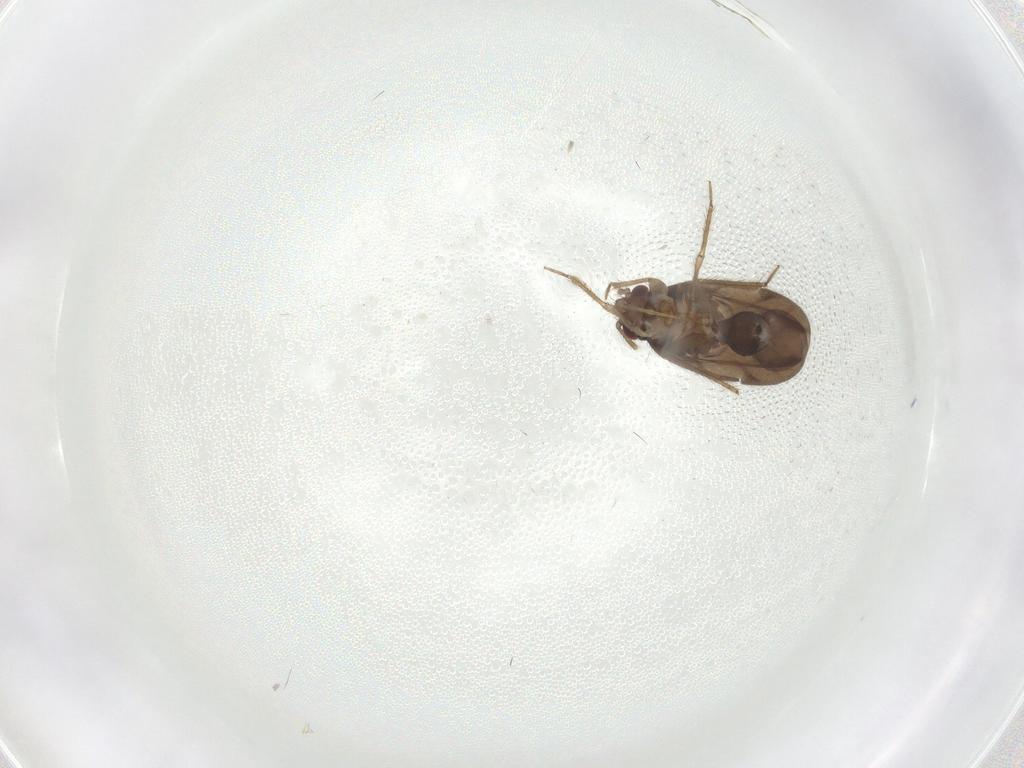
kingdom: Animalia
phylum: Arthropoda
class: Insecta
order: Hemiptera
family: Ceratocombidae
